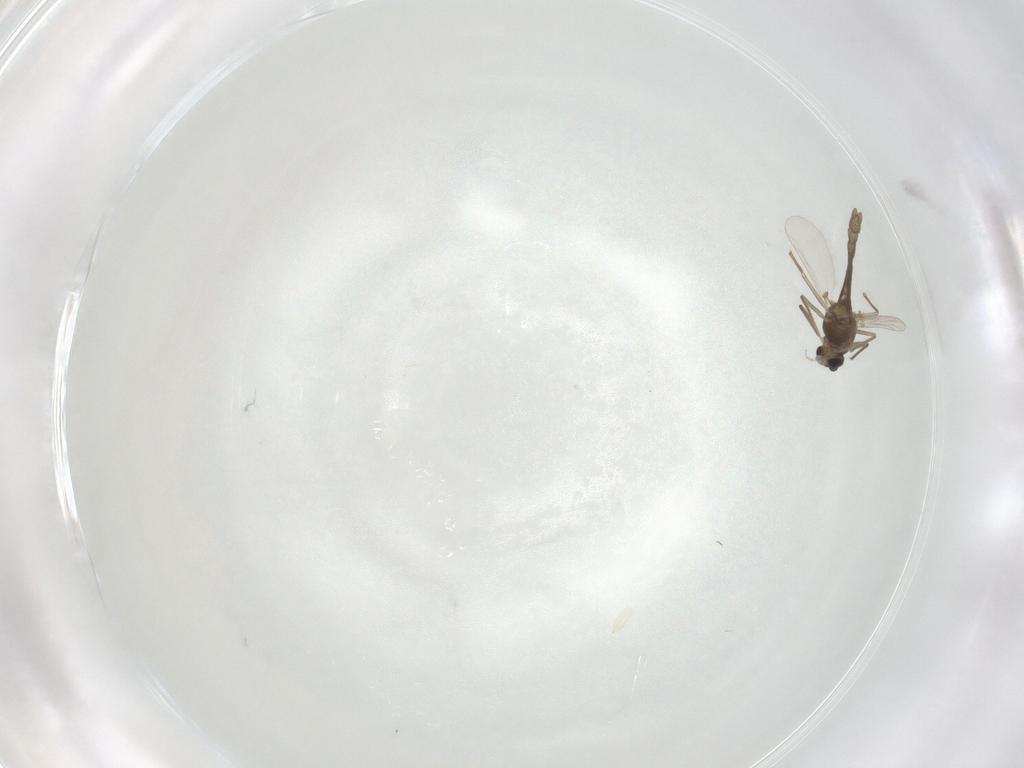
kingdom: Animalia
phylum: Arthropoda
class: Insecta
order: Diptera
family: Chironomidae
